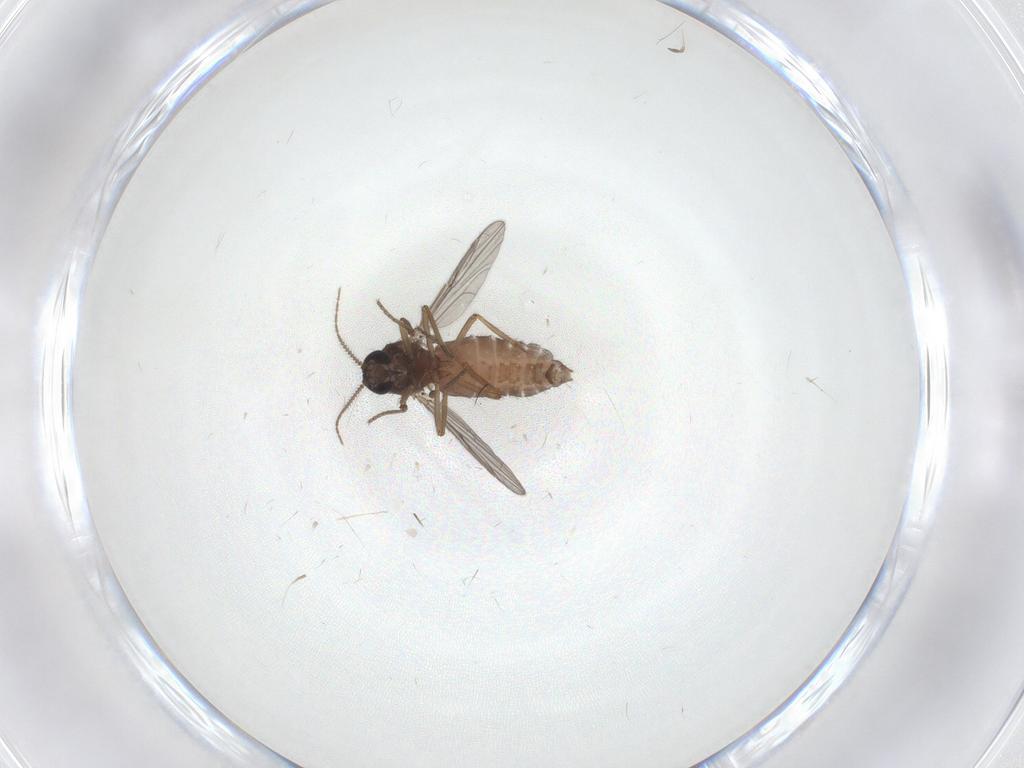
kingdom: Animalia
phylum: Arthropoda
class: Insecta
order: Diptera
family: Ceratopogonidae
